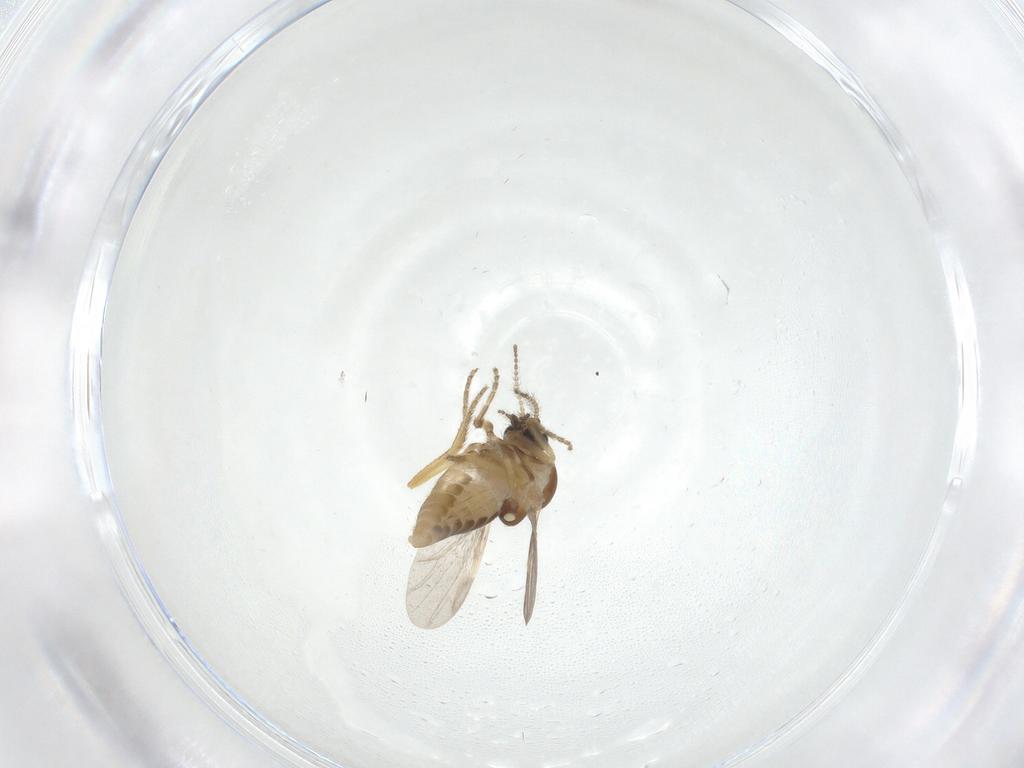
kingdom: Animalia
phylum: Arthropoda
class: Insecta
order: Diptera
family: Ceratopogonidae
